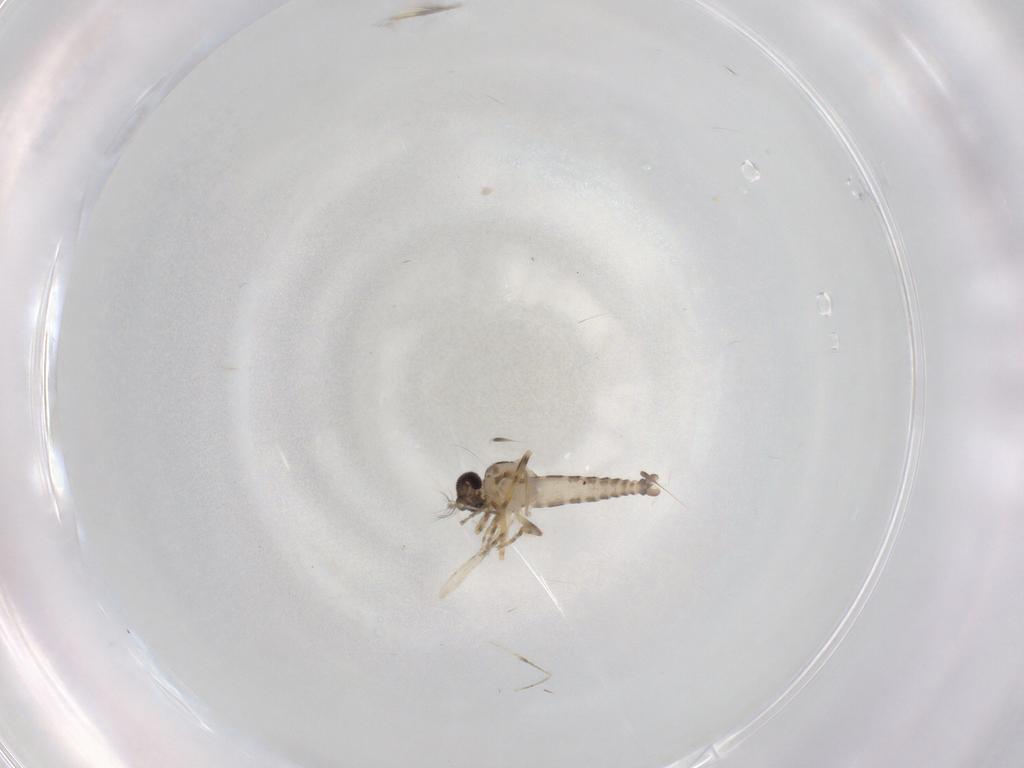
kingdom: Animalia
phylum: Arthropoda
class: Insecta
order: Diptera
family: Ceratopogonidae
